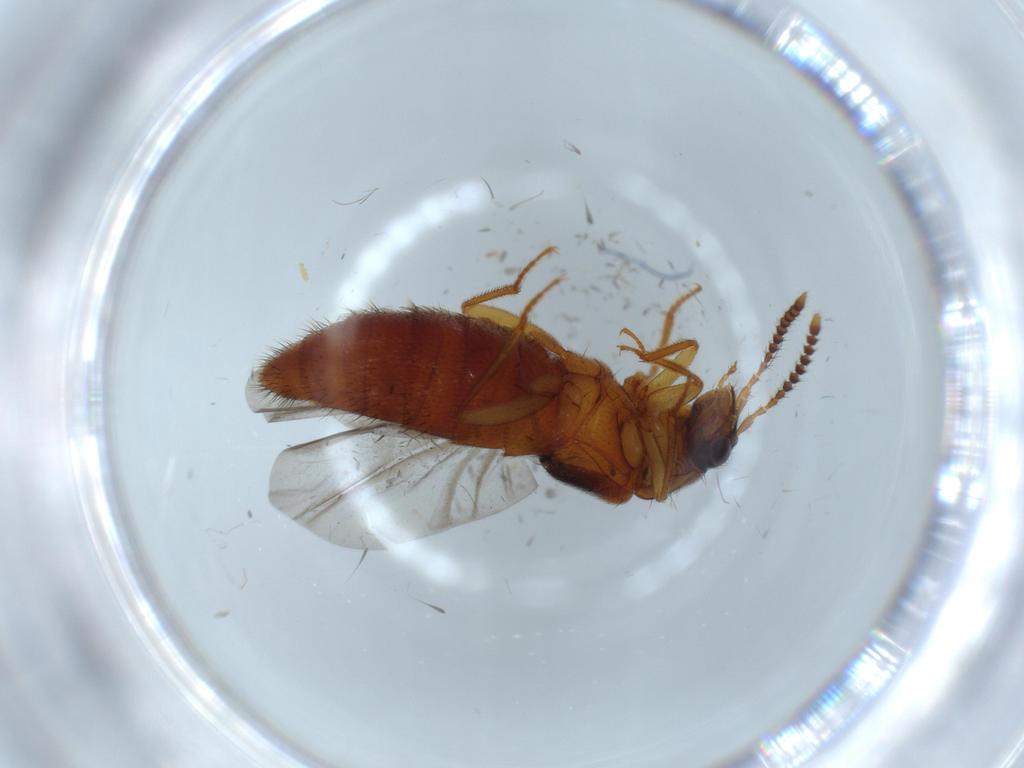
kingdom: Animalia
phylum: Arthropoda
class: Insecta
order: Coleoptera
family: Staphylinidae
